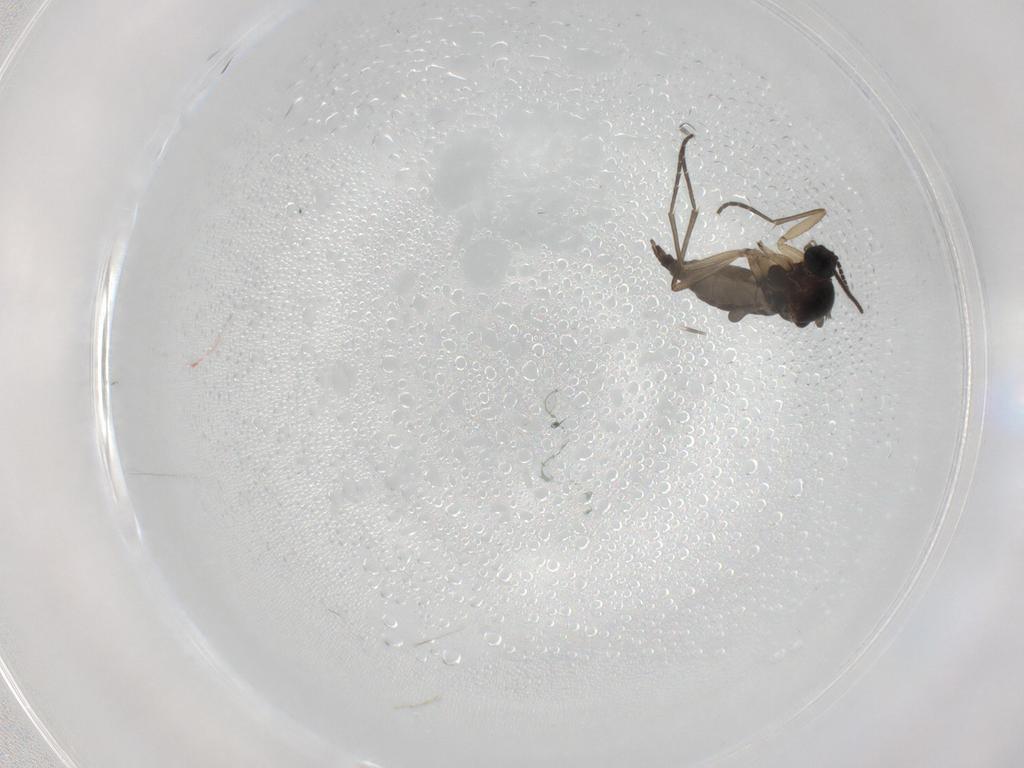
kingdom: Animalia
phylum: Arthropoda
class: Insecta
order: Diptera
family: Sciaridae
